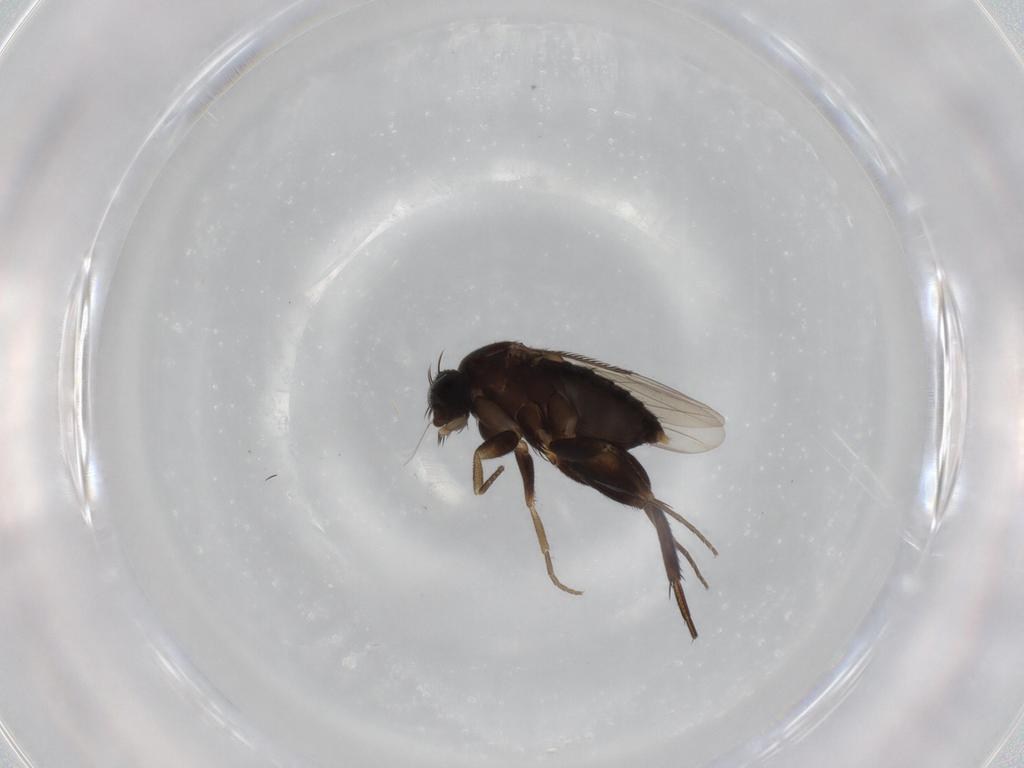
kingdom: Animalia
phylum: Arthropoda
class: Insecta
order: Diptera
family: Phoridae
